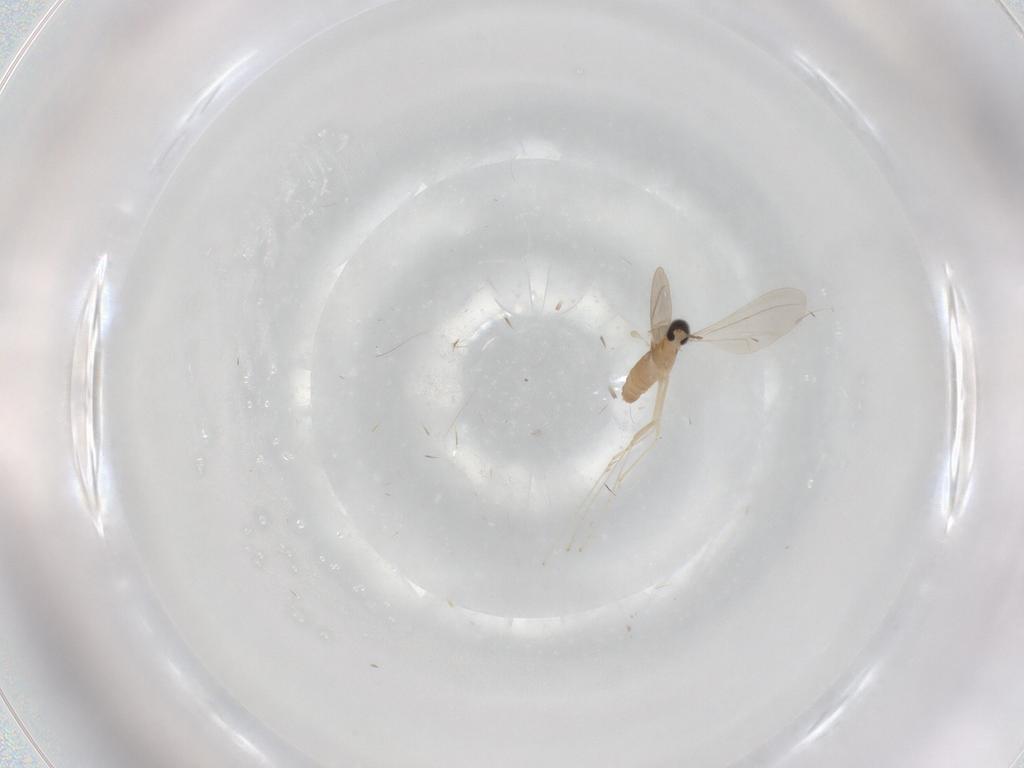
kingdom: Animalia
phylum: Arthropoda
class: Insecta
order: Diptera
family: Cecidomyiidae
